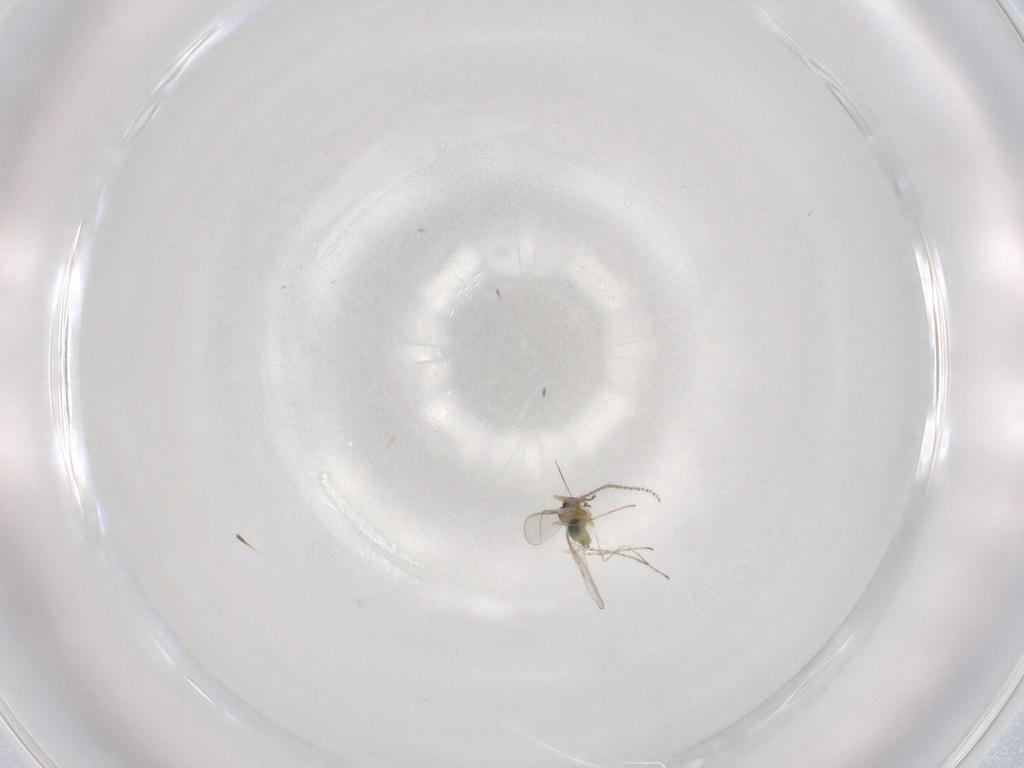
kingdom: Animalia
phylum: Arthropoda
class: Insecta
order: Diptera
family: Cecidomyiidae
